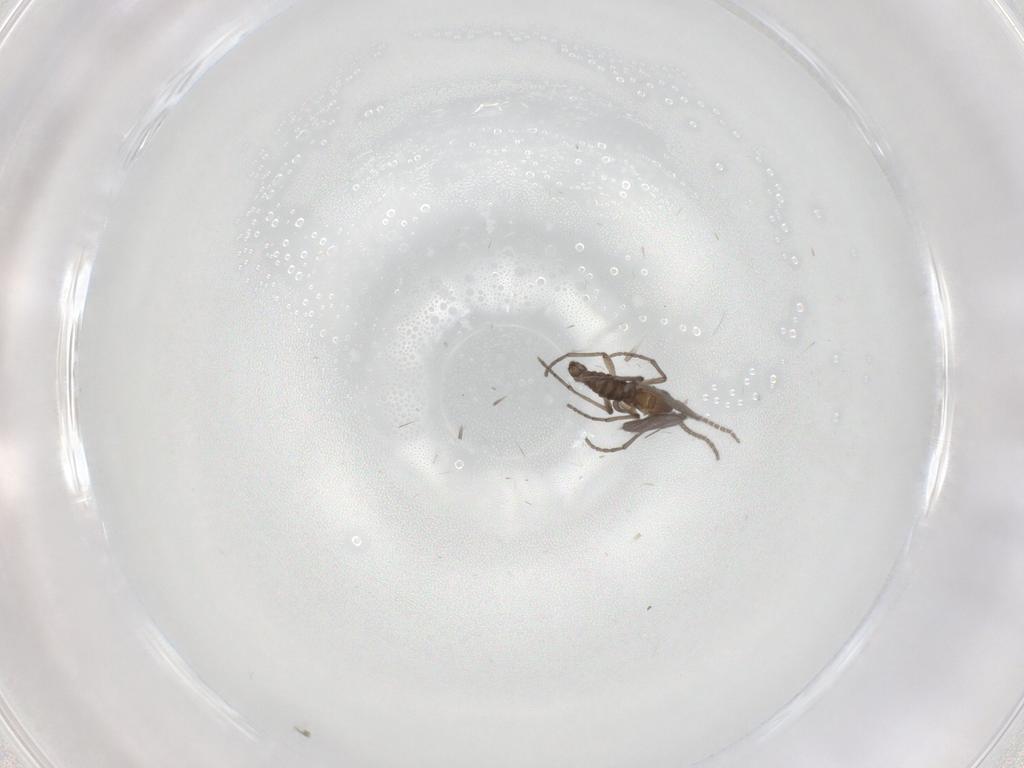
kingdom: Animalia
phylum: Arthropoda
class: Insecta
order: Diptera
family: Sciaridae
